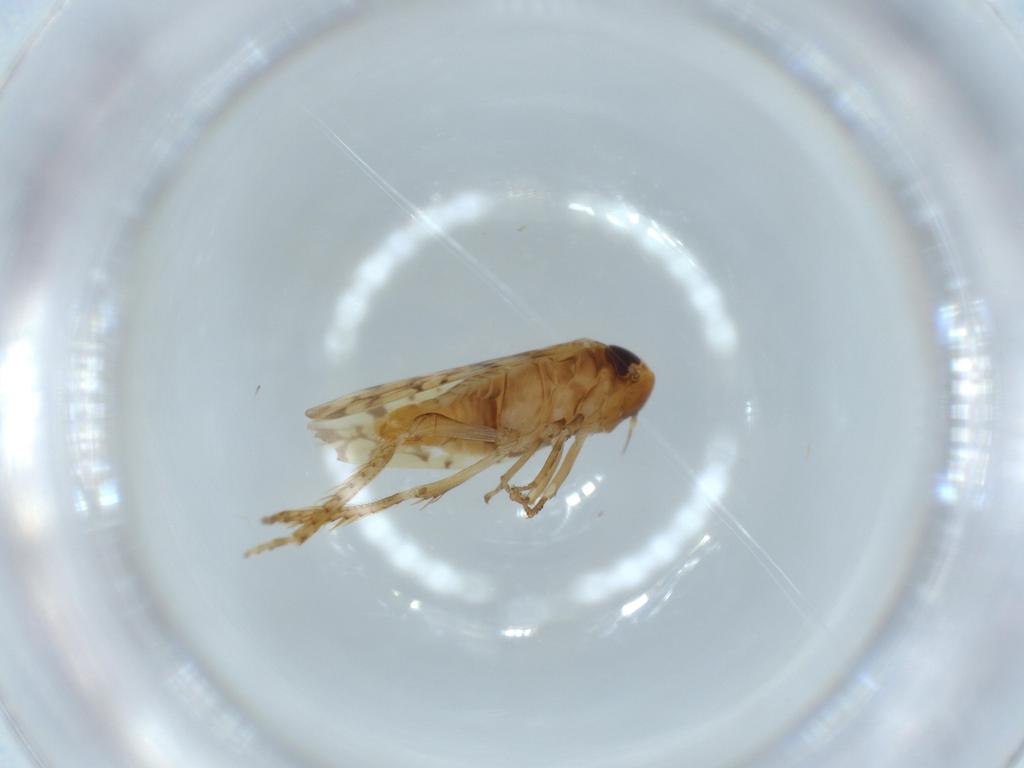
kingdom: Animalia
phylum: Arthropoda
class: Insecta
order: Hemiptera
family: Cicadellidae
